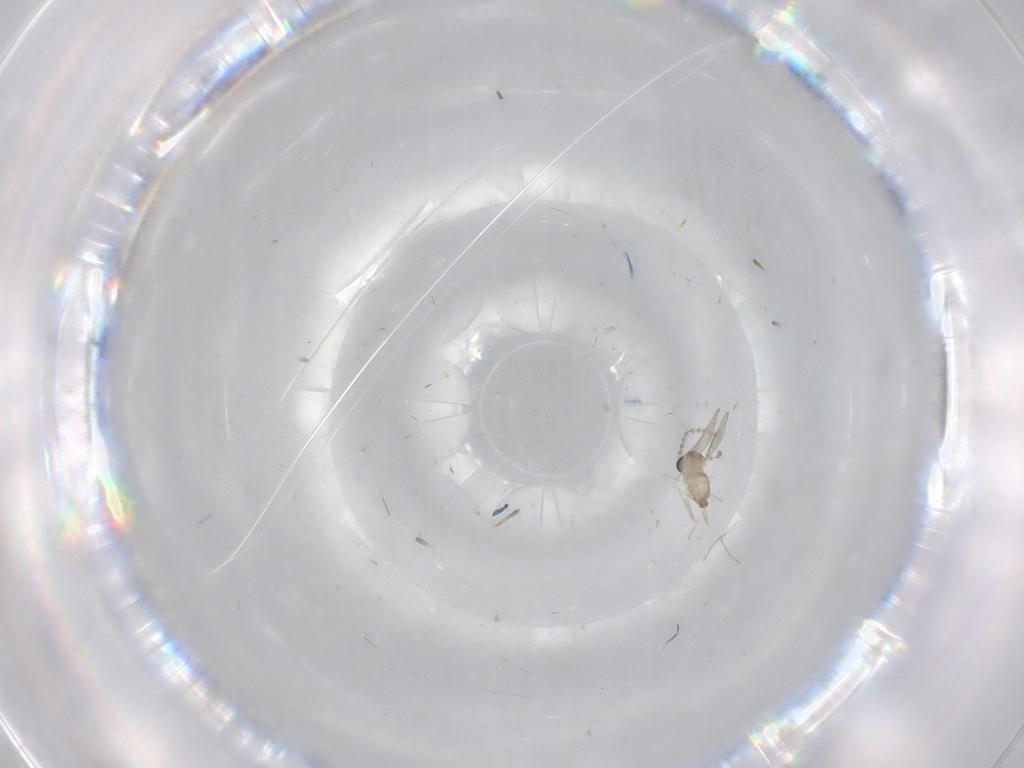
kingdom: Animalia
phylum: Arthropoda
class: Insecta
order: Diptera
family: Cecidomyiidae
